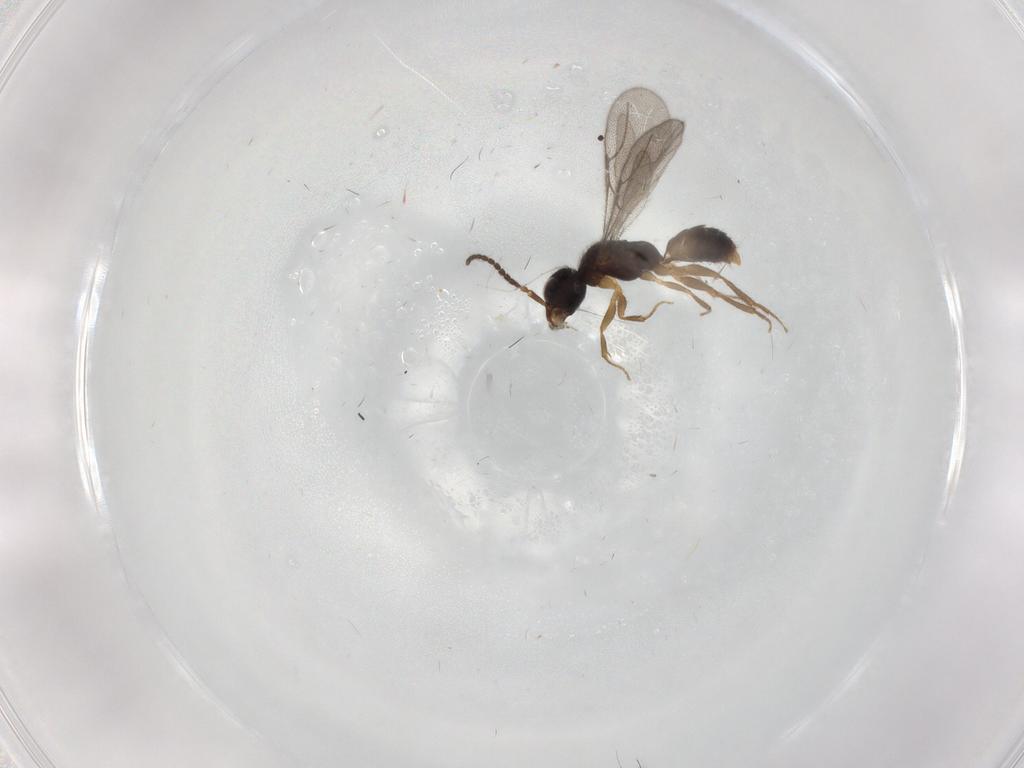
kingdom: Animalia
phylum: Arthropoda
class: Insecta
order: Hymenoptera
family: Bethylidae
